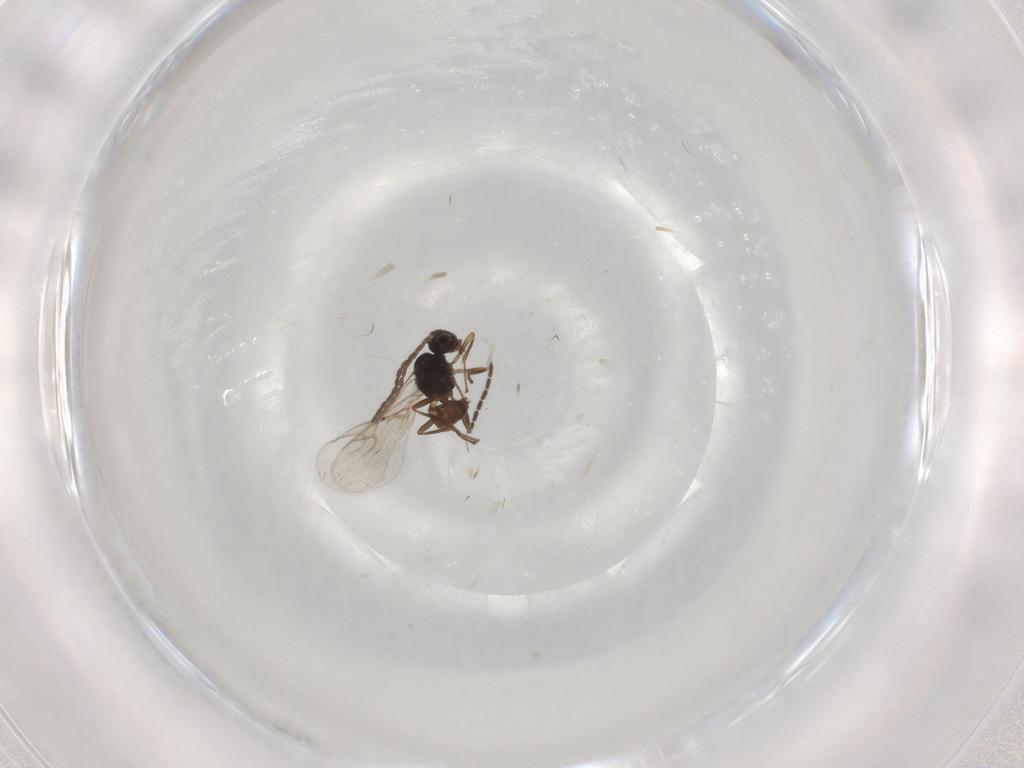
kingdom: Animalia
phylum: Arthropoda
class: Insecta
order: Hymenoptera
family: Braconidae
